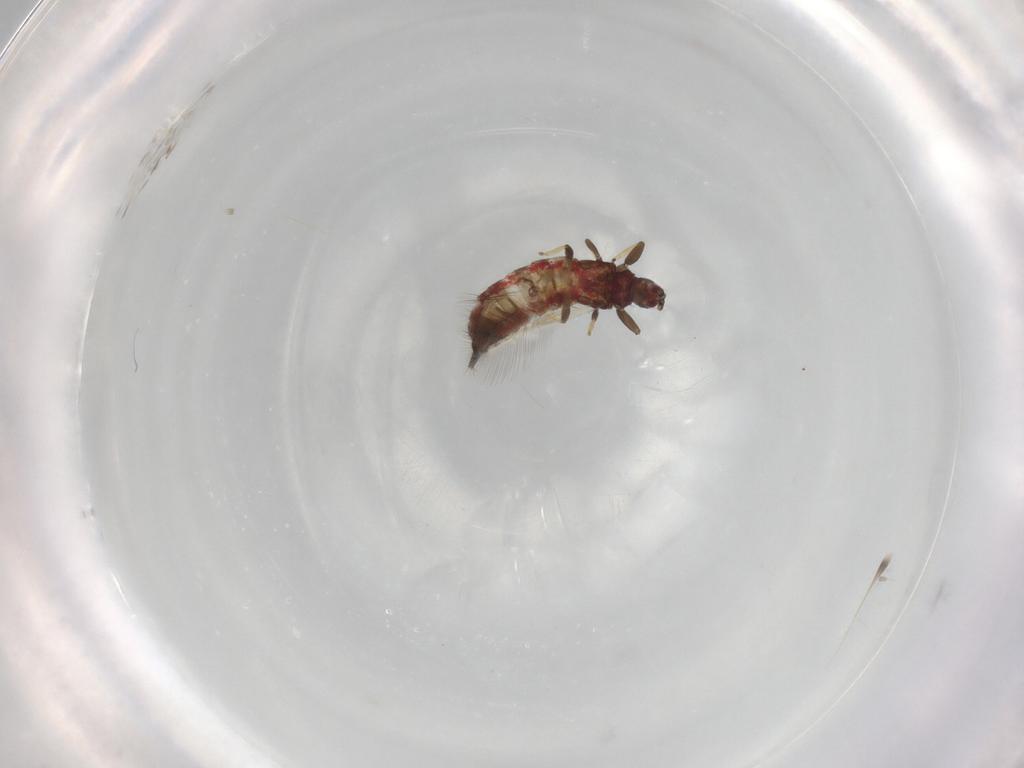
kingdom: Animalia
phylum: Arthropoda
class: Insecta
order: Thysanoptera
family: Phlaeothripidae
